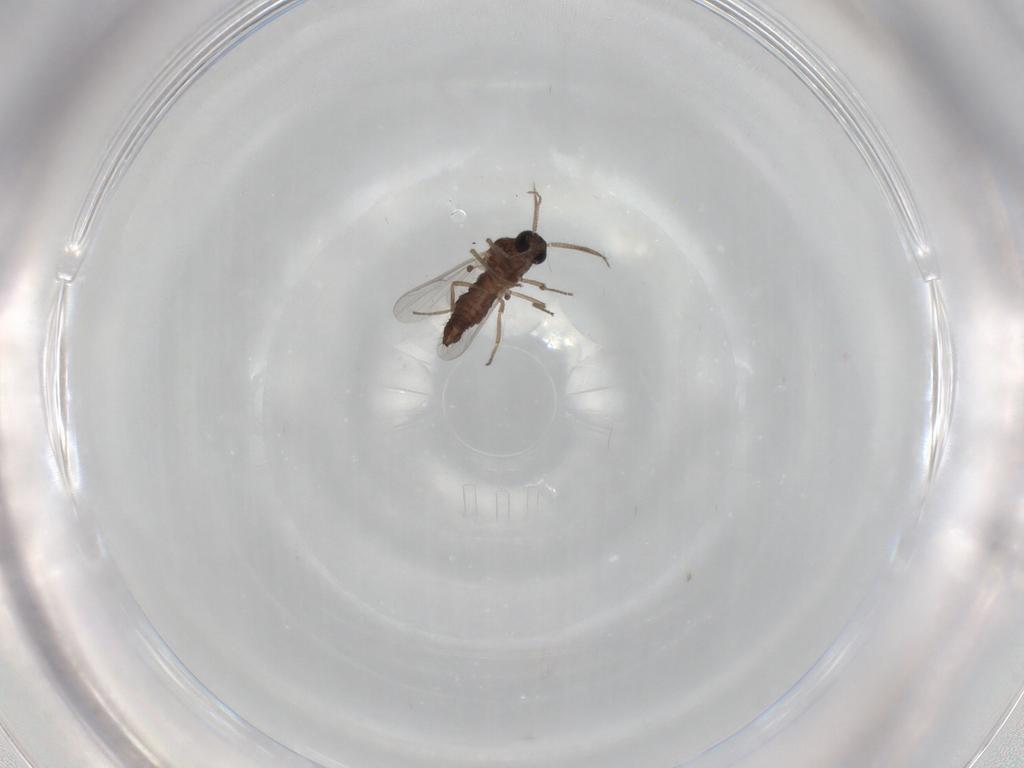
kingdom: Animalia
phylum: Arthropoda
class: Insecta
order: Diptera
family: Ceratopogonidae
